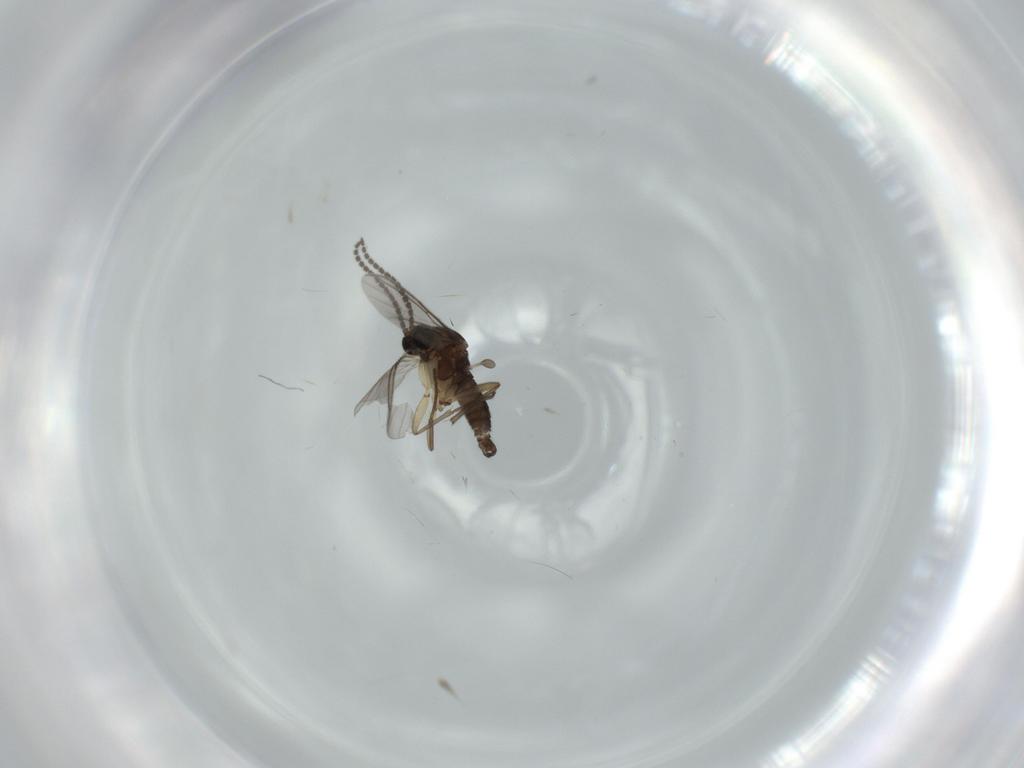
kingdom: Animalia
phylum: Arthropoda
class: Insecta
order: Diptera
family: Sciaridae
